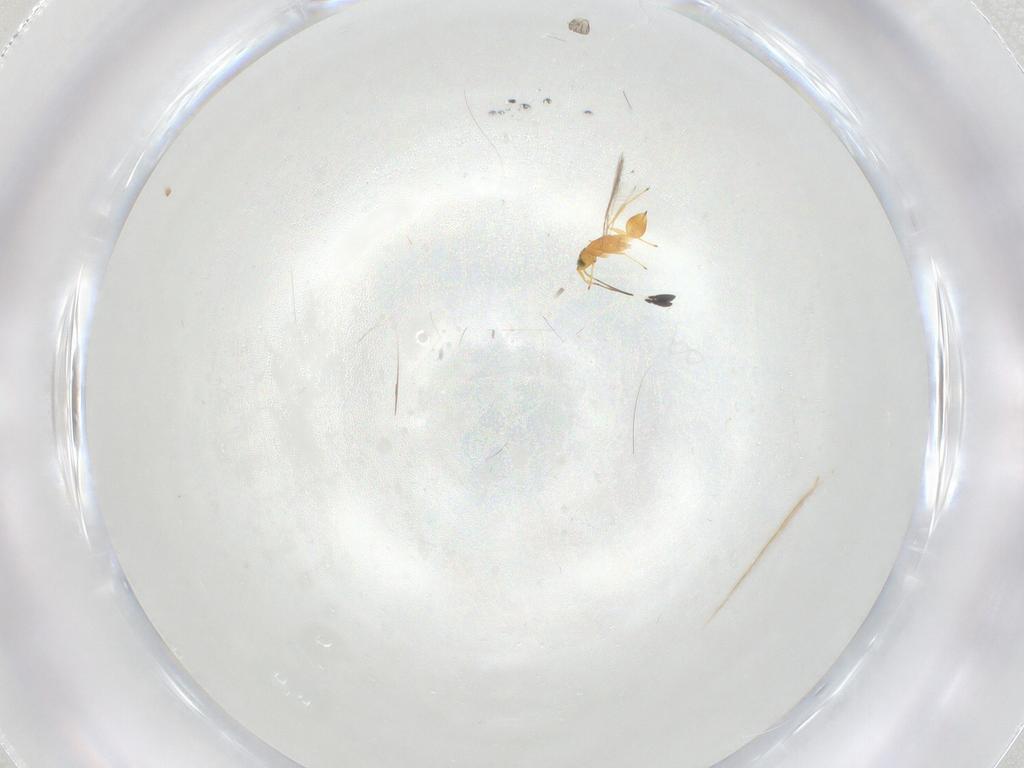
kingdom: Animalia
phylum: Arthropoda
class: Insecta
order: Hymenoptera
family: Mymaridae
